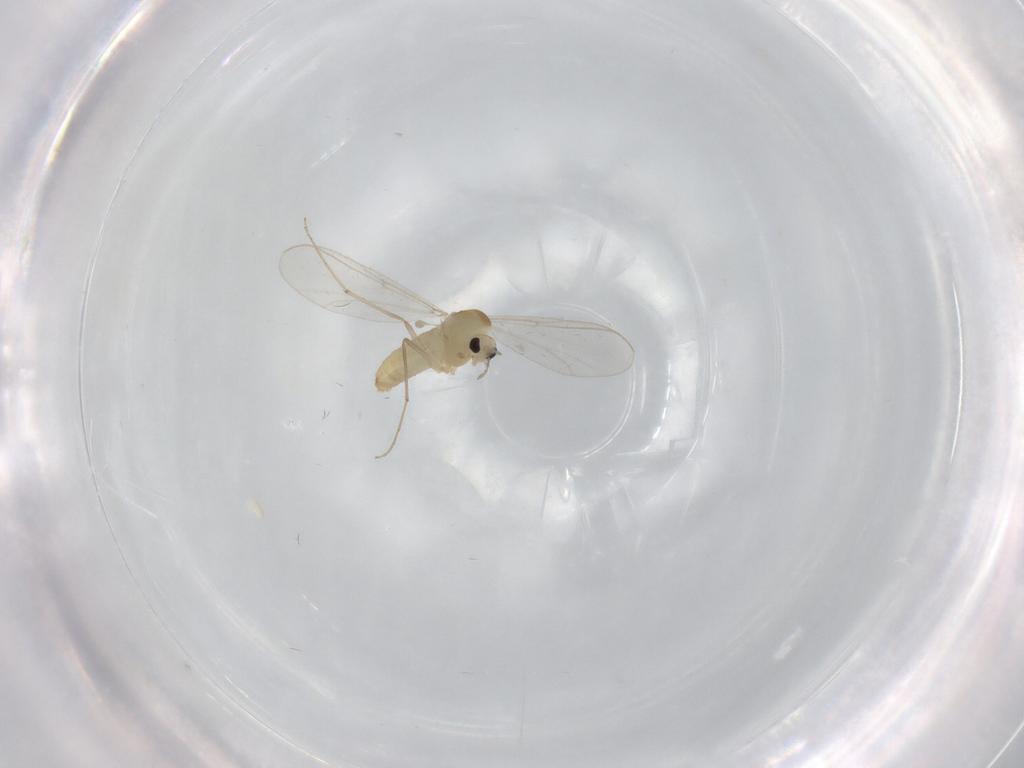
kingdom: Animalia
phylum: Arthropoda
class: Insecta
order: Diptera
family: Chironomidae
